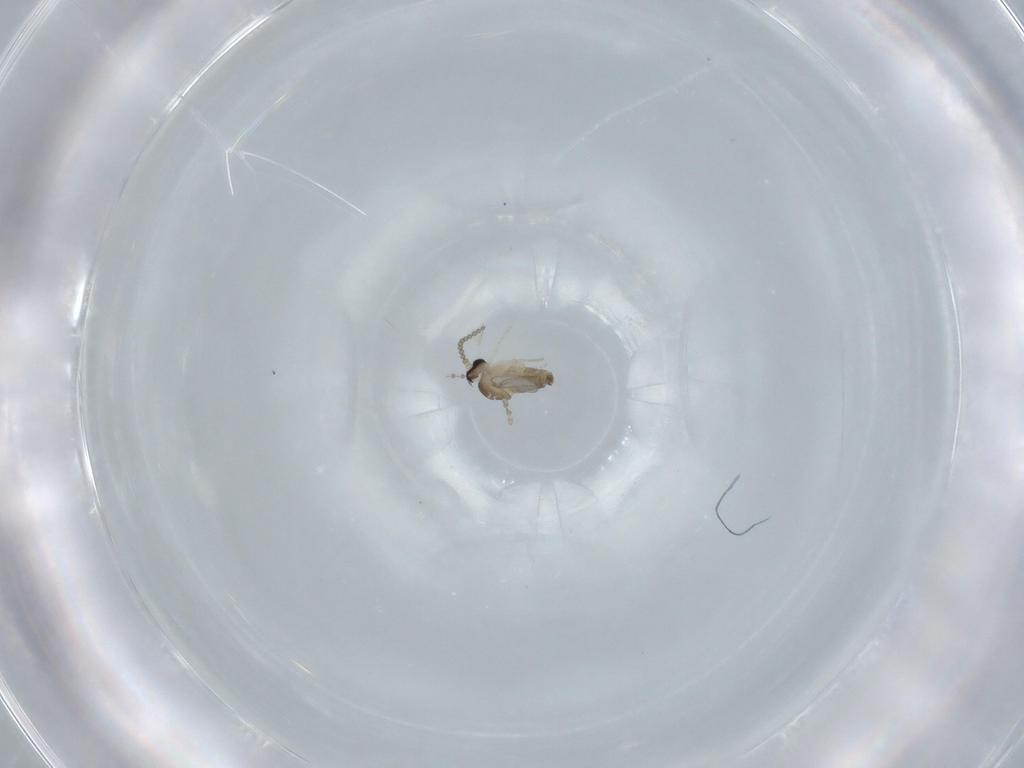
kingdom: Animalia
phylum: Arthropoda
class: Insecta
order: Diptera
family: Cecidomyiidae
